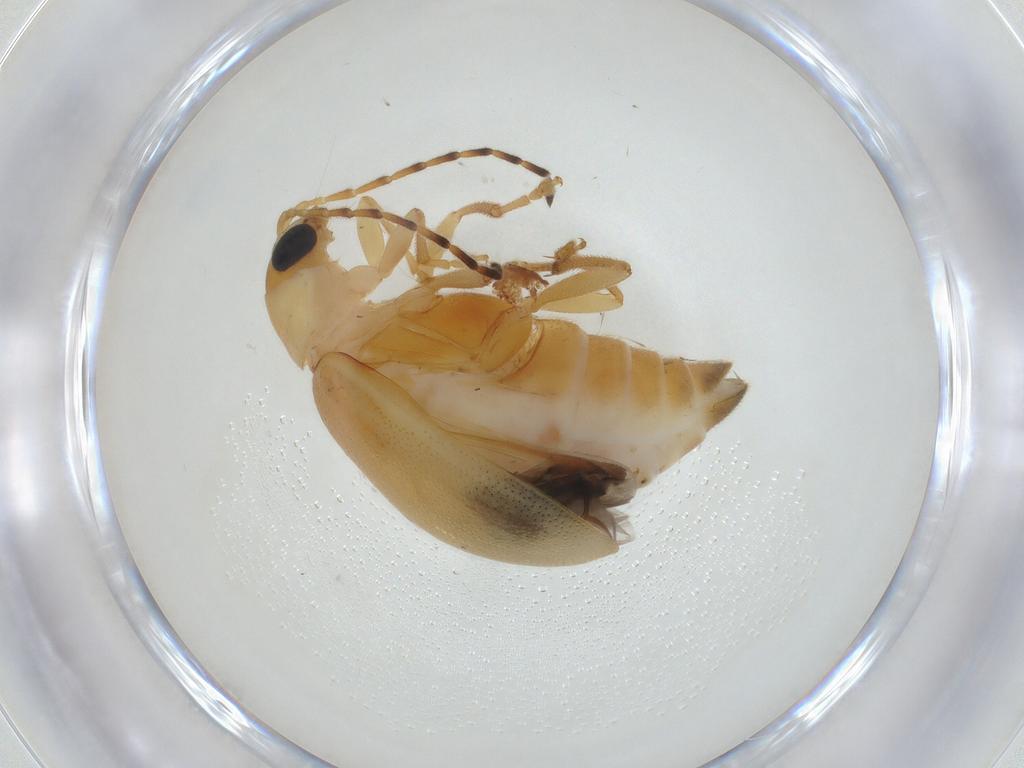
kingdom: Animalia
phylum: Arthropoda
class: Insecta
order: Coleoptera
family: Chrysomelidae
